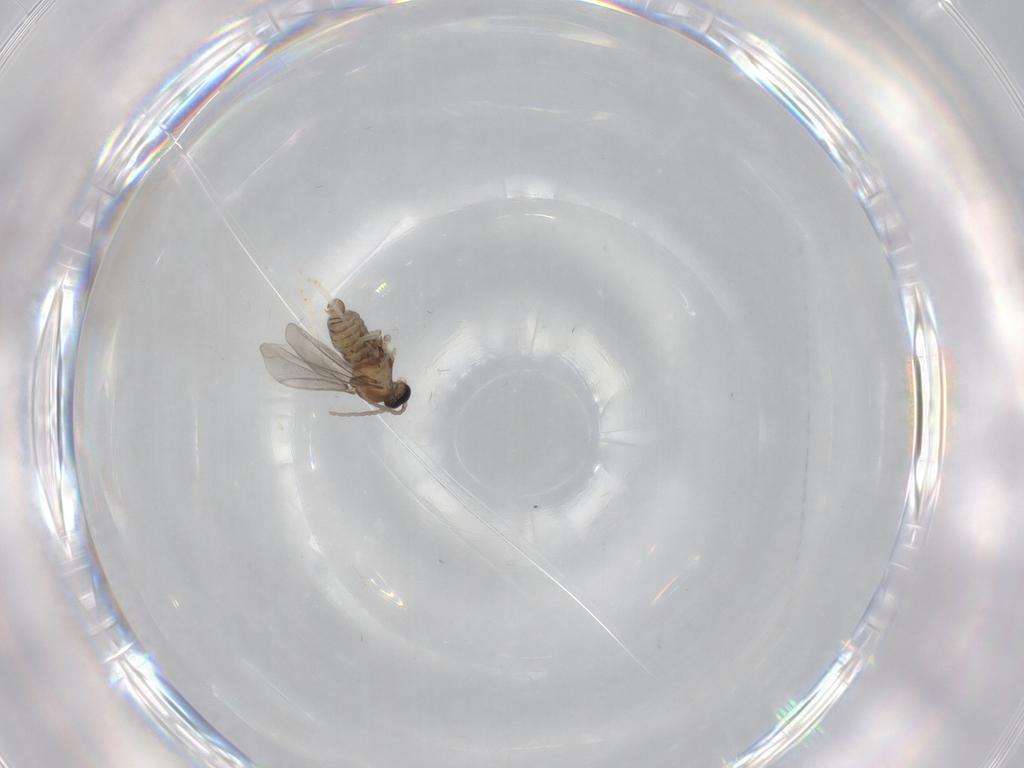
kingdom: Animalia
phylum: Arthropoda
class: Insecta
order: Diptera
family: Cecidomyiidae
